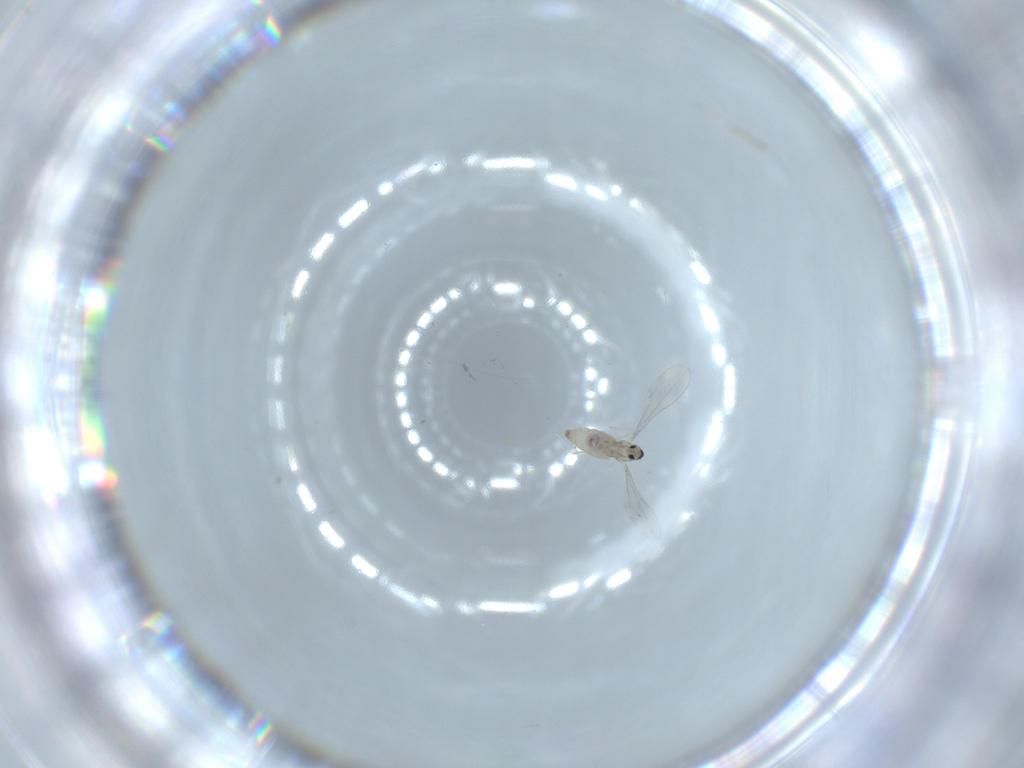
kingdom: Animalia
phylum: Arthropoda
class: Insecta
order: Diptera
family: Cecidomyiidae
